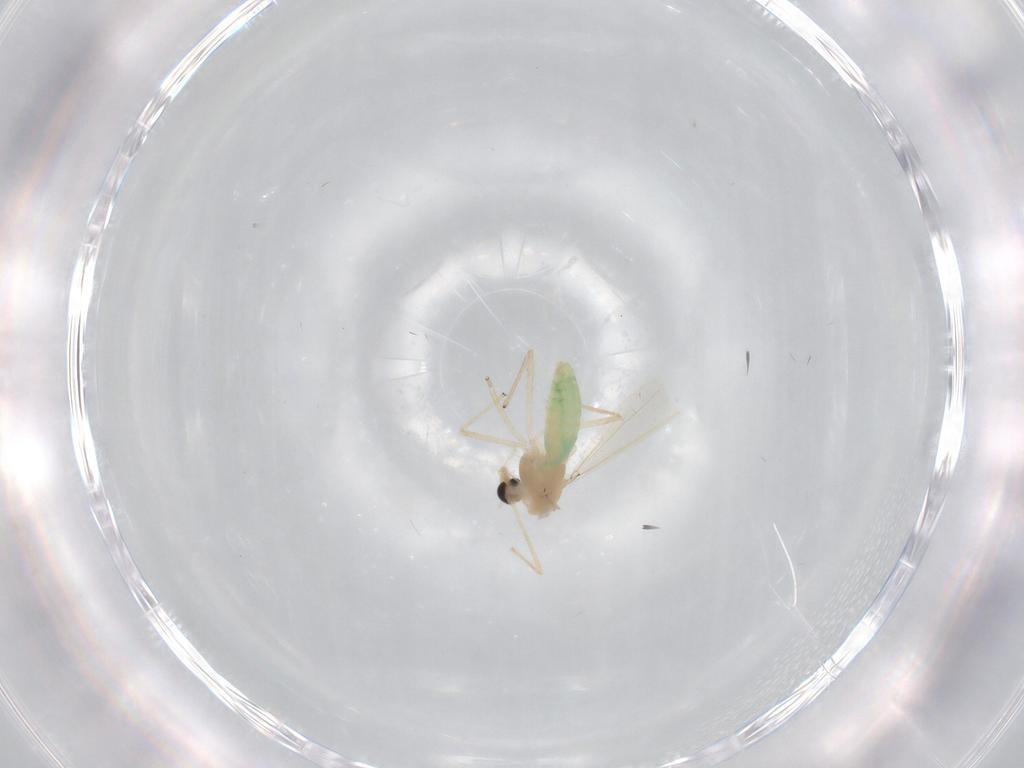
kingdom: Animalia
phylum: Arthropoda
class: Insecta
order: Diptera
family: Chironomidae
